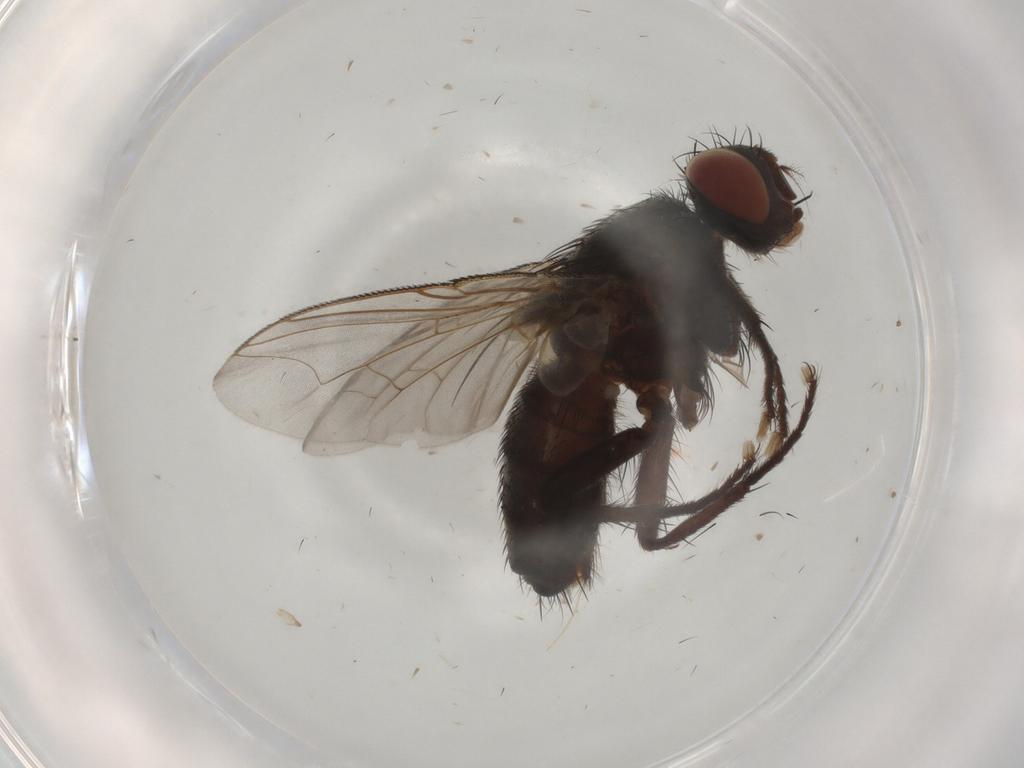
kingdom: Animalia
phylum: Arthropoda
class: Insecta
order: Diptera
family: Sarcophagidae
